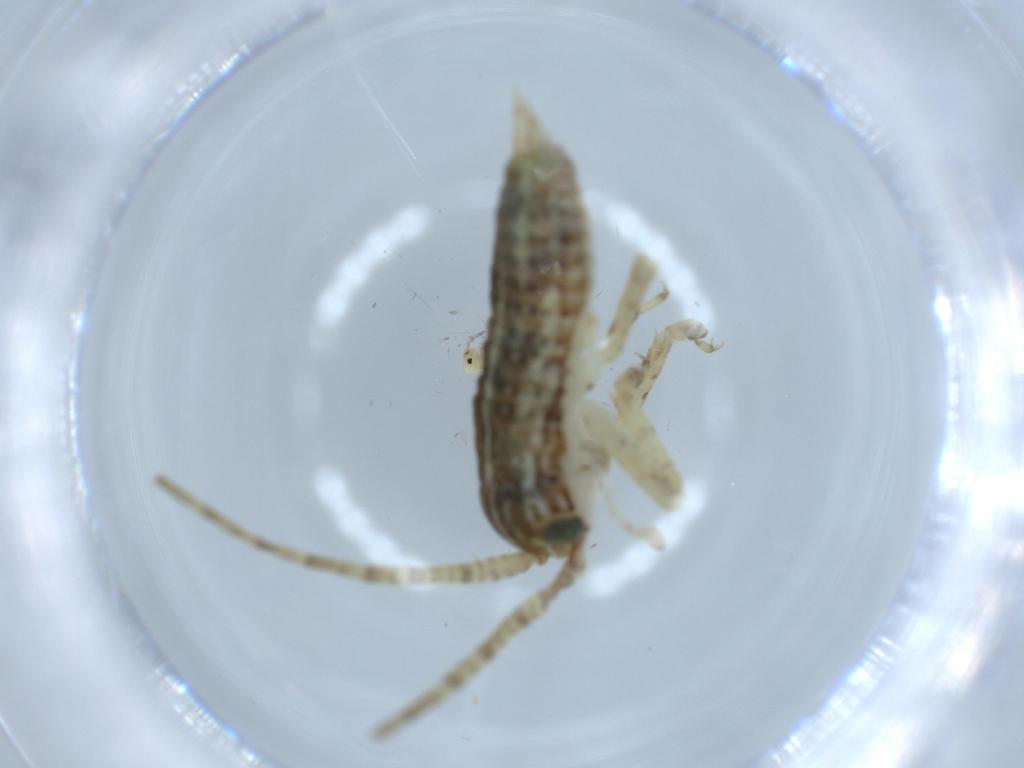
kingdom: Animalia
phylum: Arthropoda
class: Insecta
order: Orthoptera
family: Gryllidae
